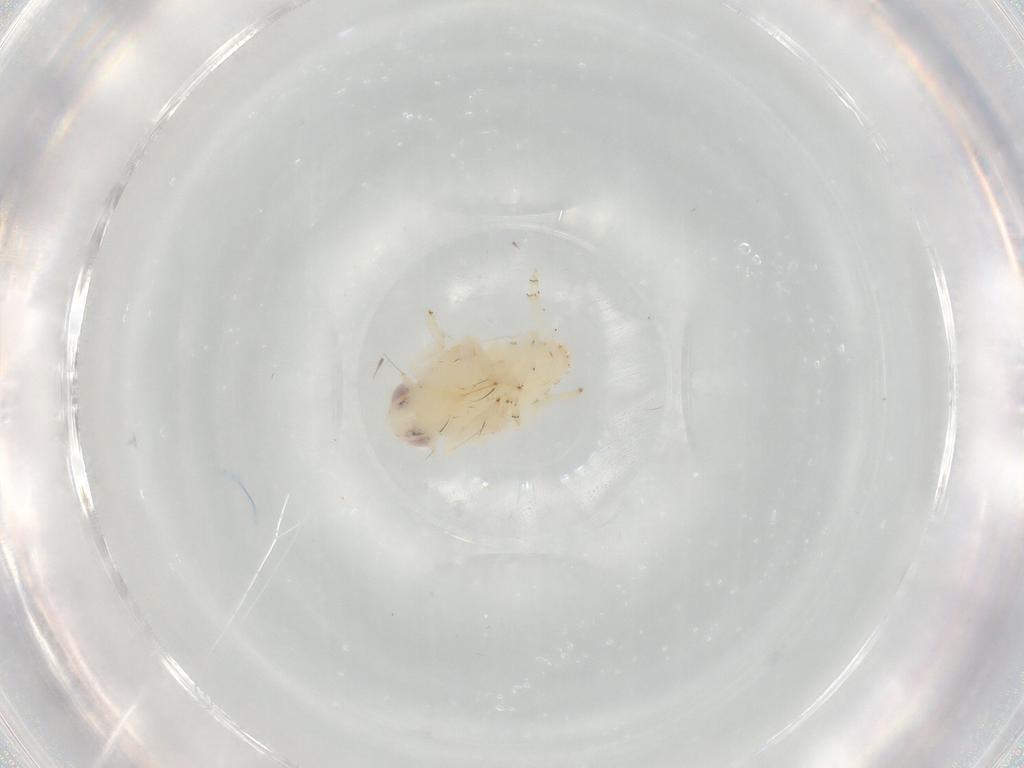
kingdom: Animalia
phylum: Arthropoda
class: Insecta
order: Hemiptera
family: Nogodinidae
